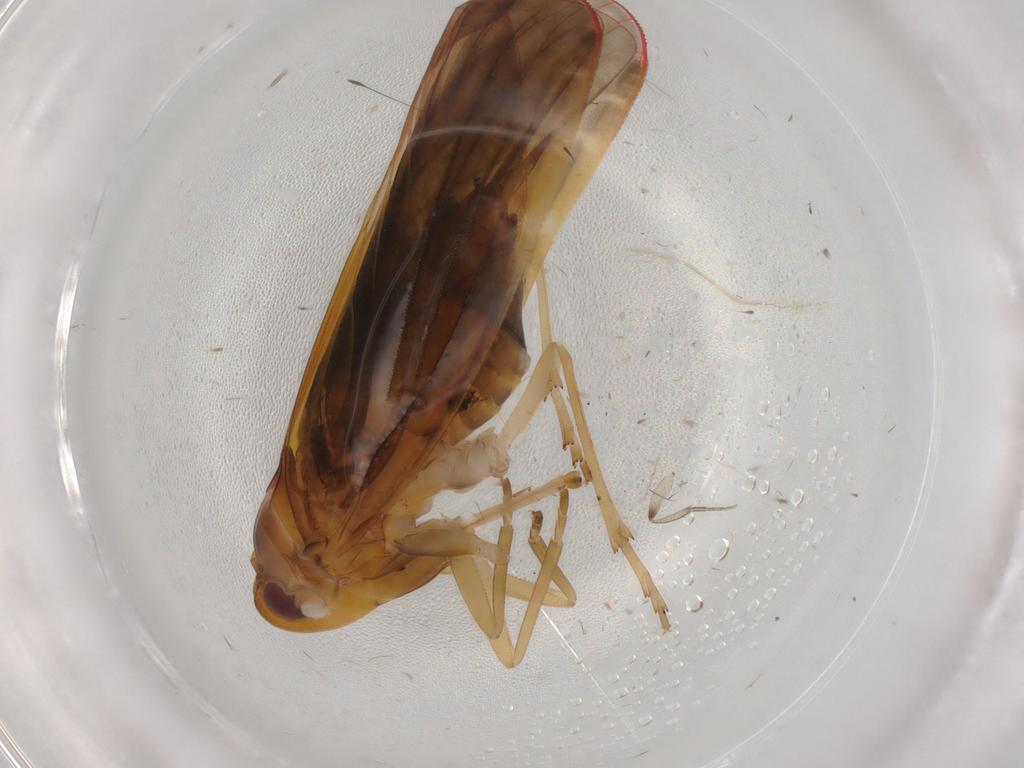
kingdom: Animalia
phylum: Arthropoda
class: Insecta
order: Hemiptera
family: Derbidae
